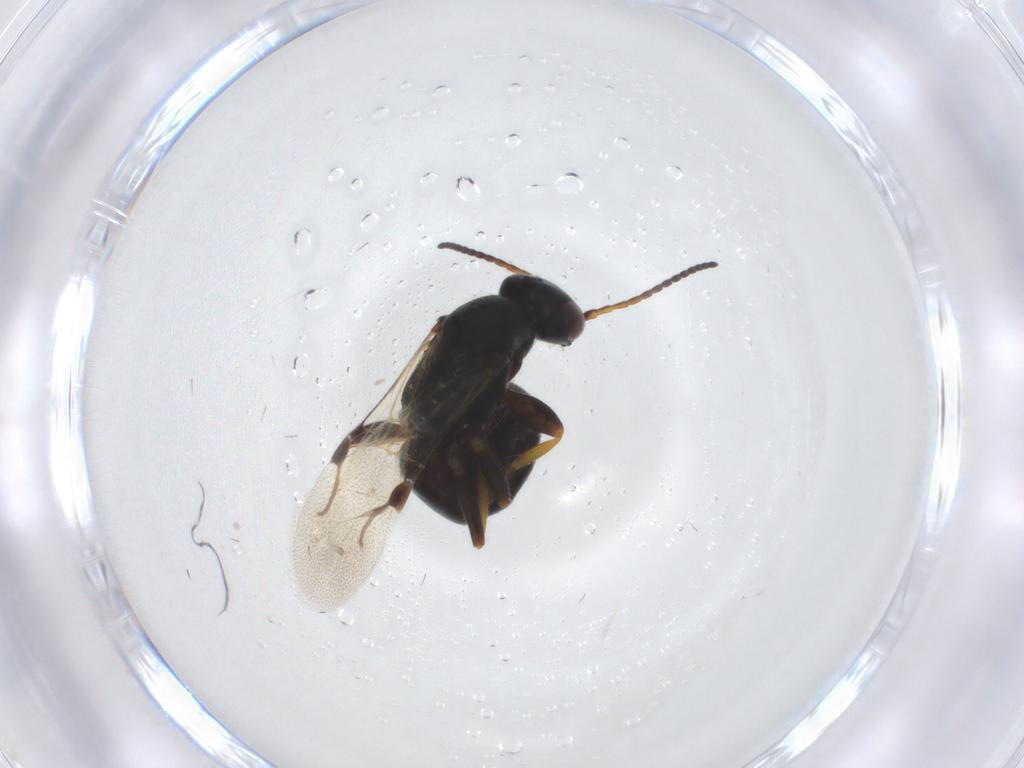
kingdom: Animalia
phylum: Arthropoda
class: Insecta
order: Hymenoptera
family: Bethylidae
